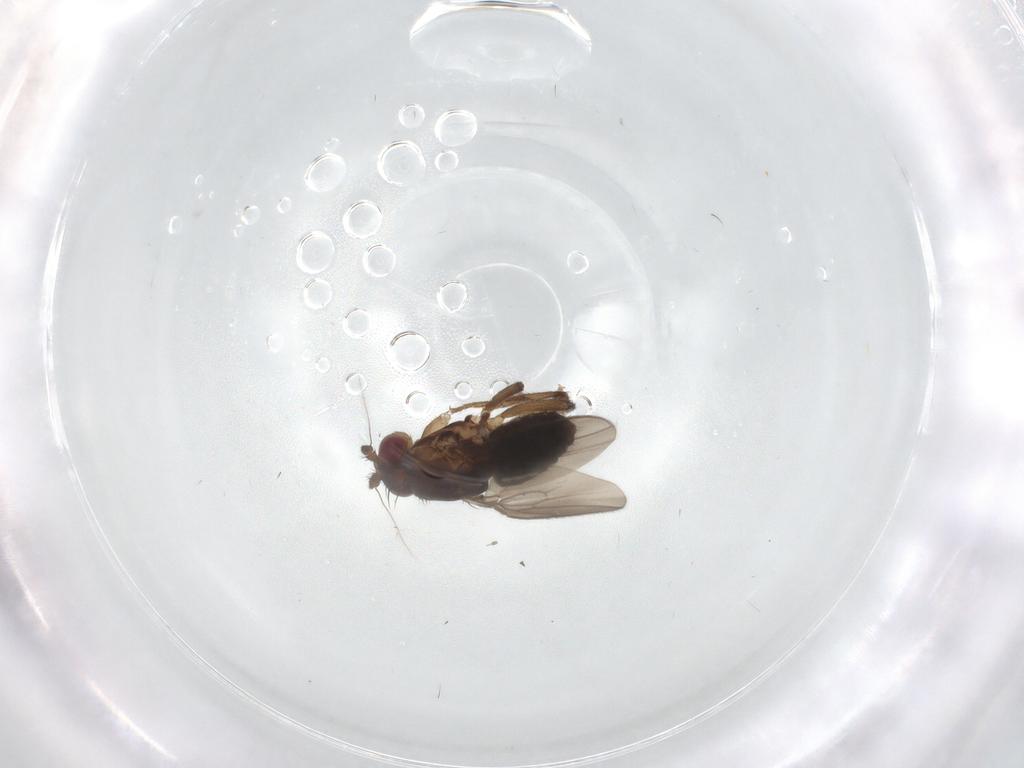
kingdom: Animalia
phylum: Arthropoda
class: Insecta
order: Diptera
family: Sphaeroceridae
